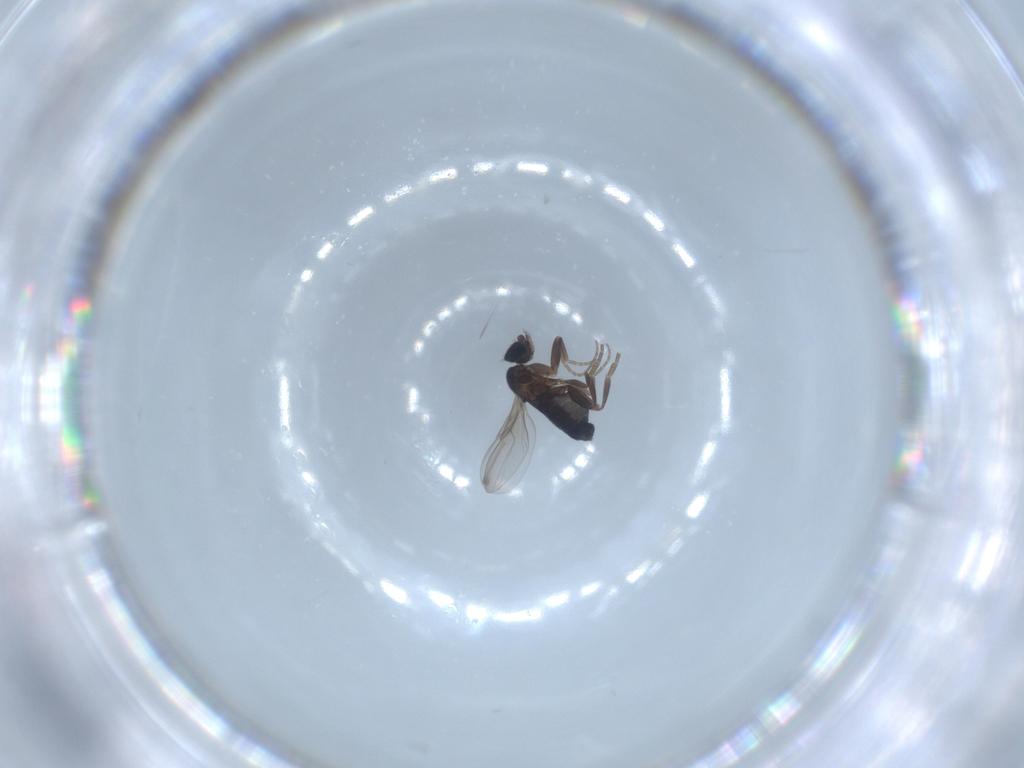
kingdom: Animalia
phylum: Arthropoda
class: Insecta
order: Diptera
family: Phoridae
